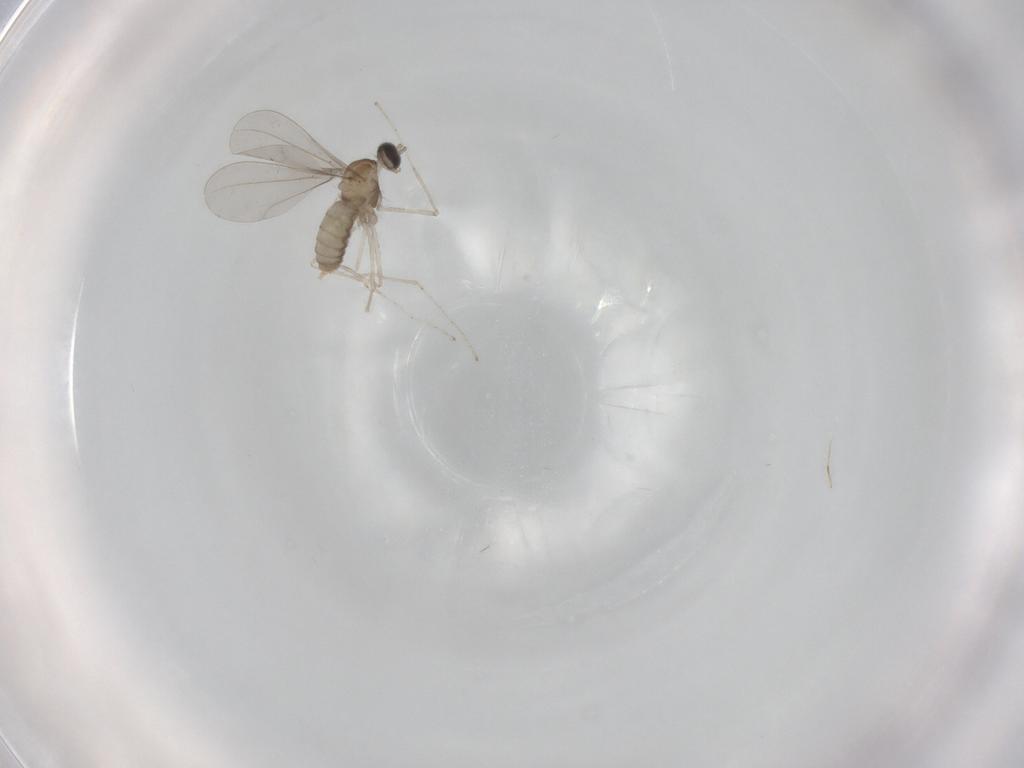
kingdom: Animalia
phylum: Arthropoda
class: Insecta
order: Diptera
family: Cecidomyiidae
